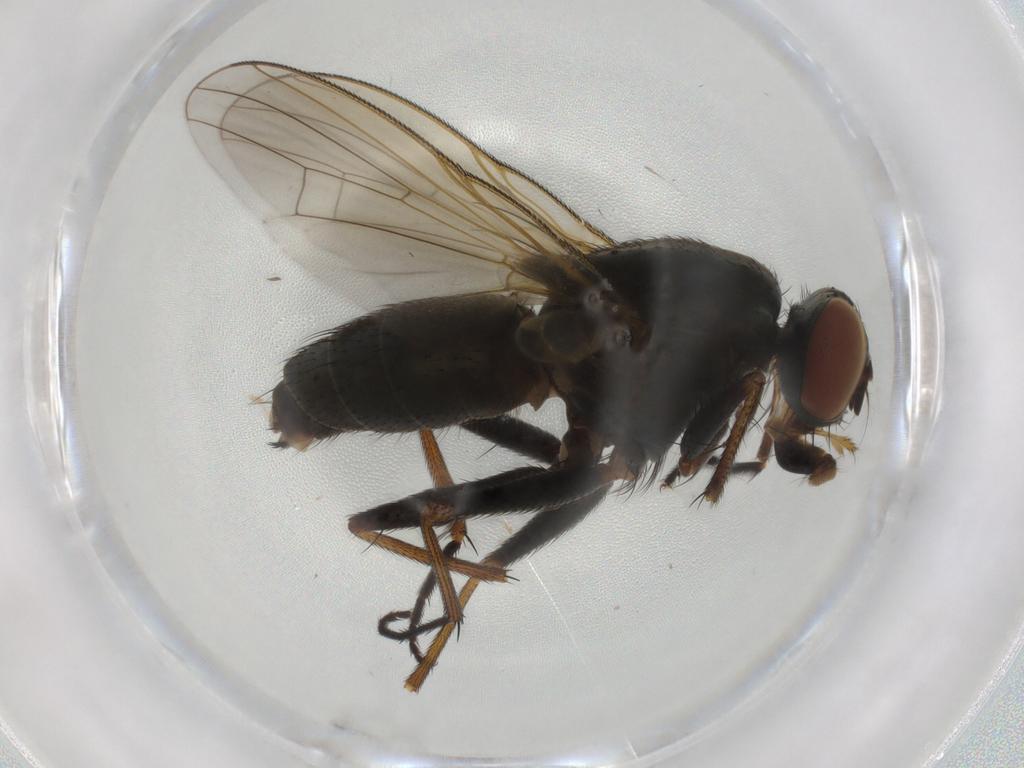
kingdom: Animalia
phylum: Arthropoda
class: Insecta
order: Diptera
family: Muscidae
